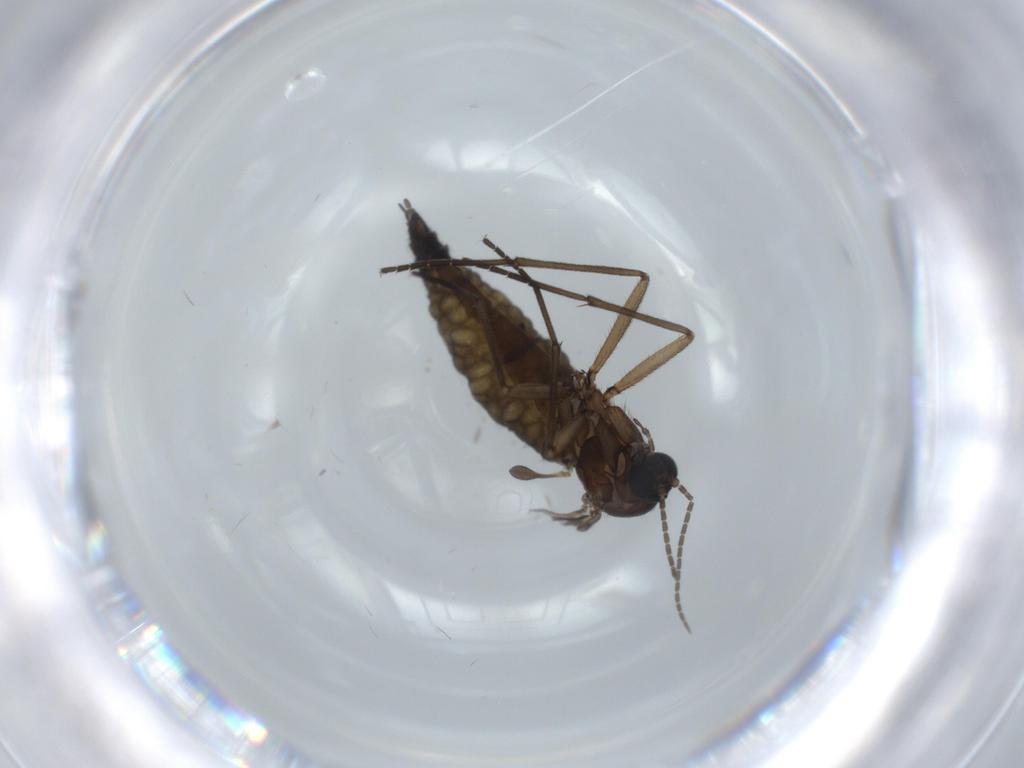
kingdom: Animalia
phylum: Arthropoda
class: Insecta
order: Diptera
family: Sciaridae
